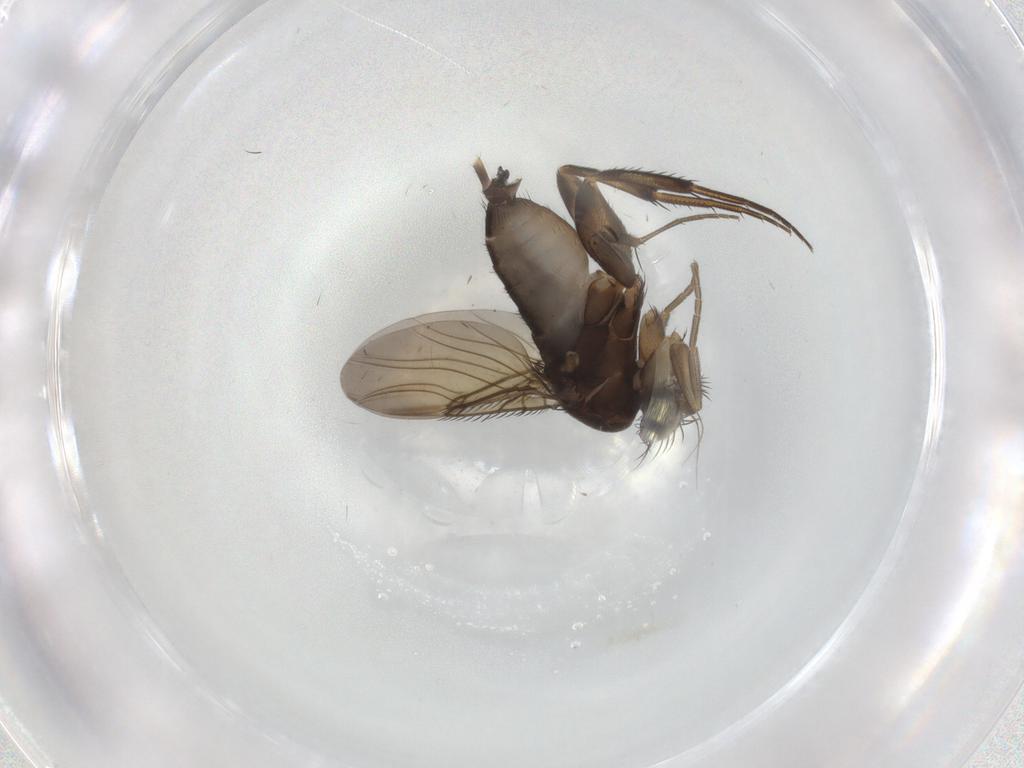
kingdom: Animalia
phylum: Arthropoda
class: Insecta
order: Diptera
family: Phoridae
